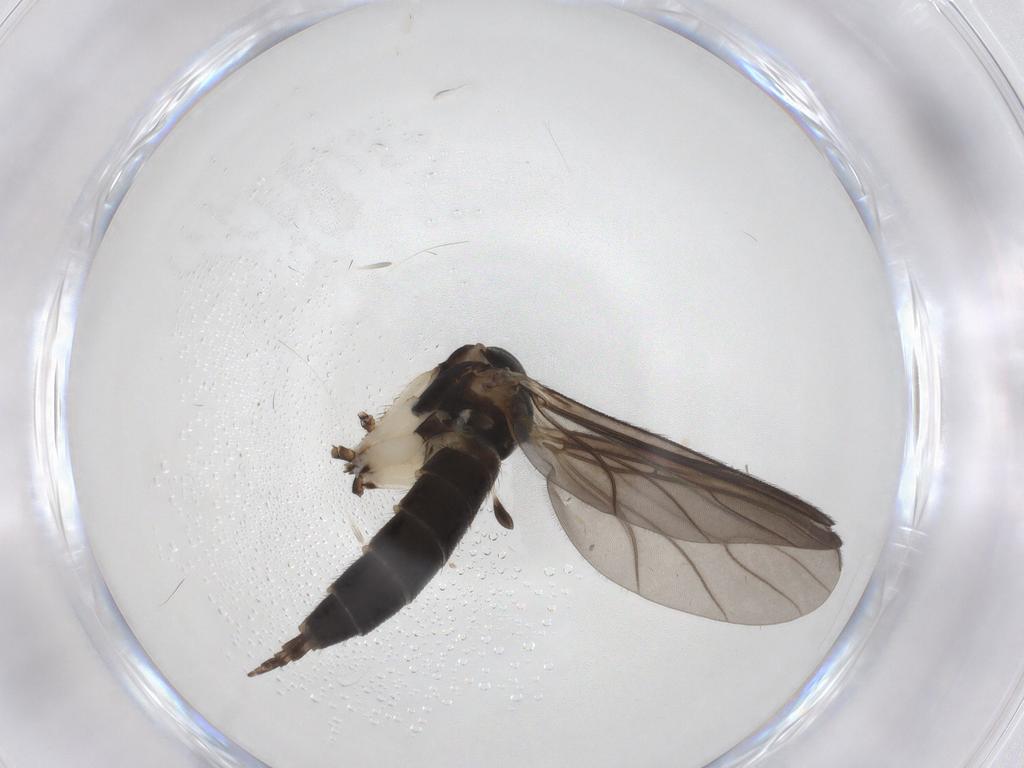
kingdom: Animalia
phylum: Arthropoda
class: Insecta
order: Diptera
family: Sciaridae
